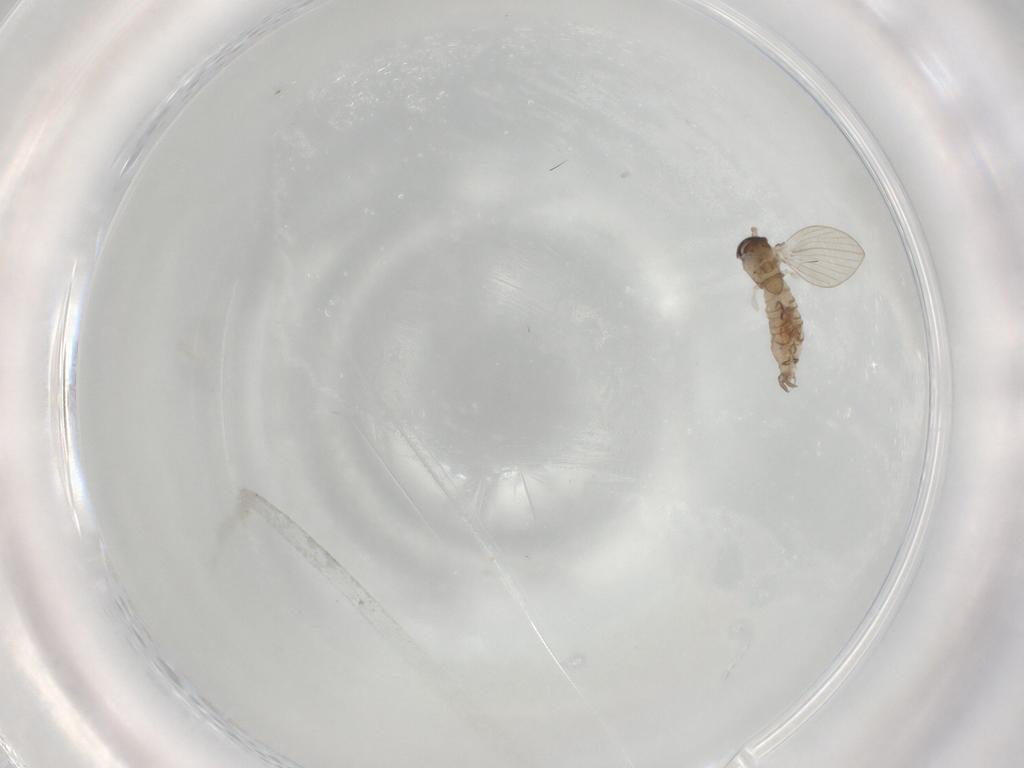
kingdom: Animalia
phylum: Arthropoda
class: Insecta
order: Diptera
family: Psychodidae
